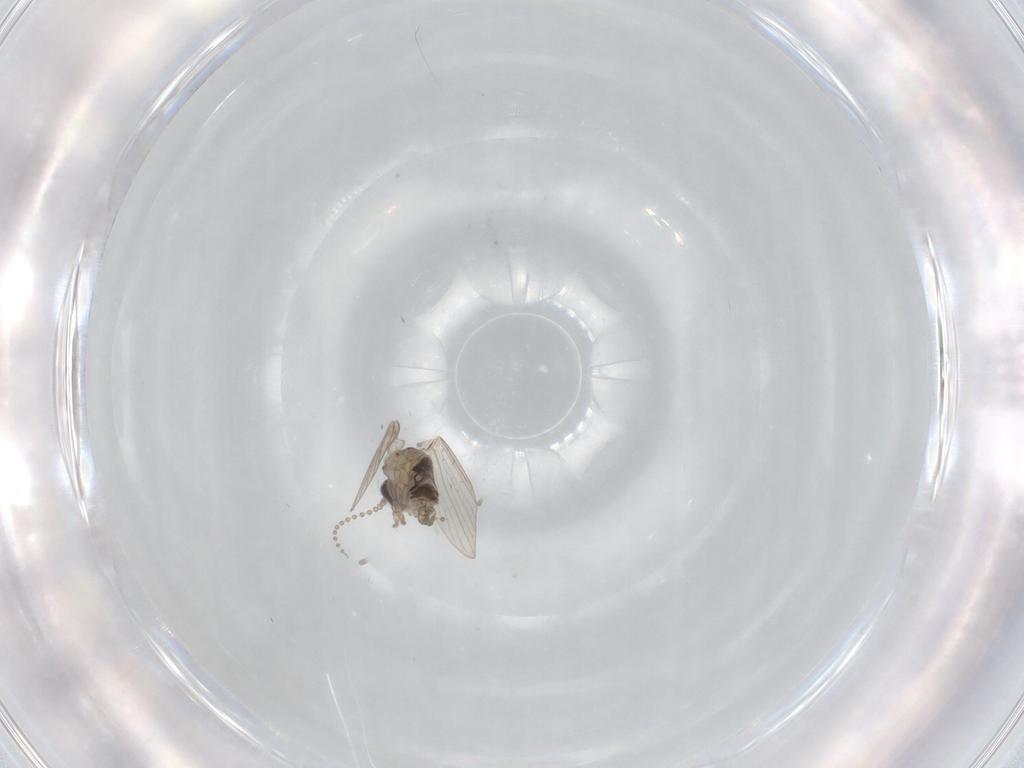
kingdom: Animalia
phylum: Arthropoda
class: Insecta
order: Diptera
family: Psychodidae
